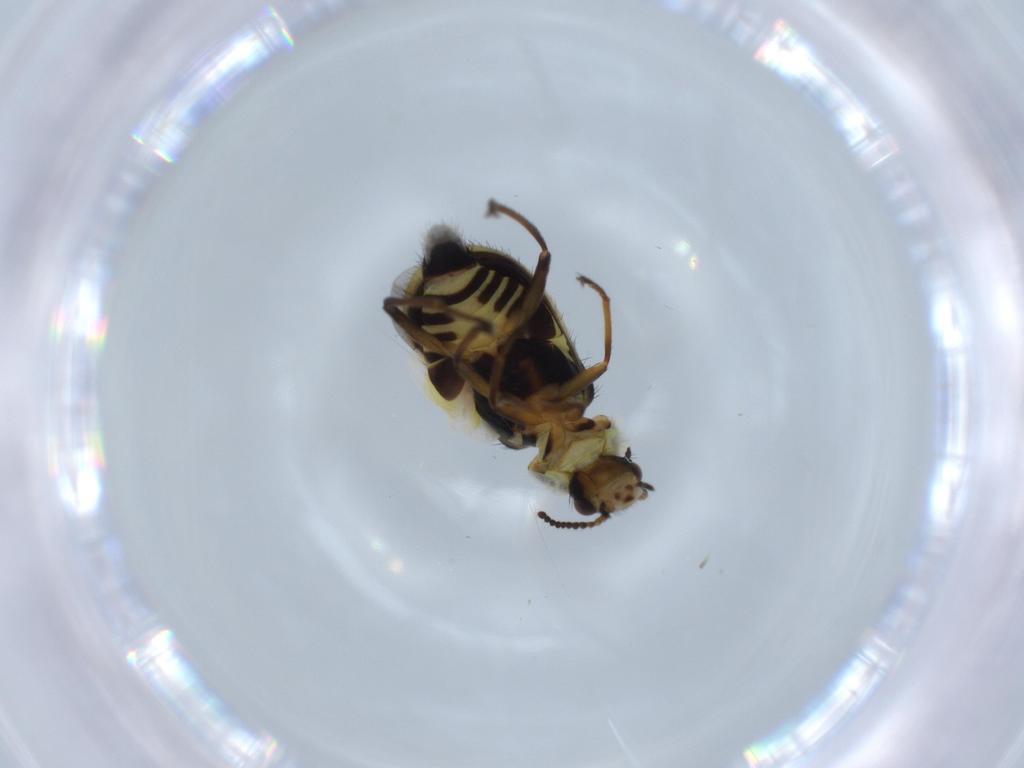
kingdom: Animalia
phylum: Arthropoda
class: Insecta
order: Coleoptera
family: Melyridae
